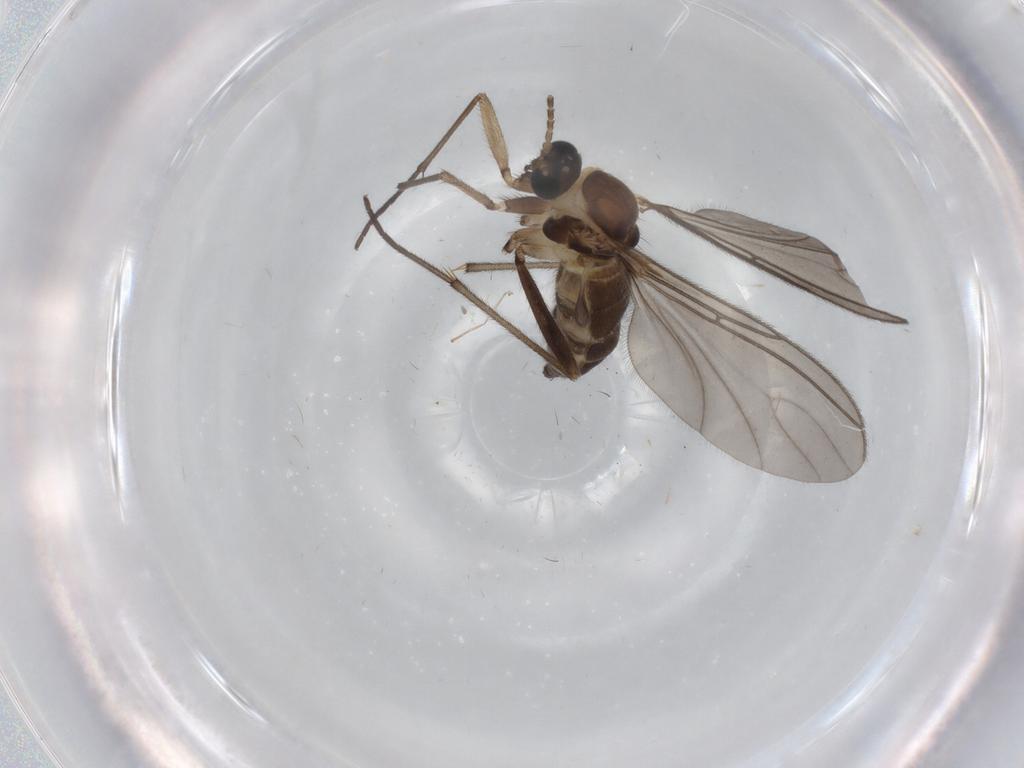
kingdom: Animalia
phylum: Arthropoda
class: Insecta
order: Diptera
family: Sciaridae
